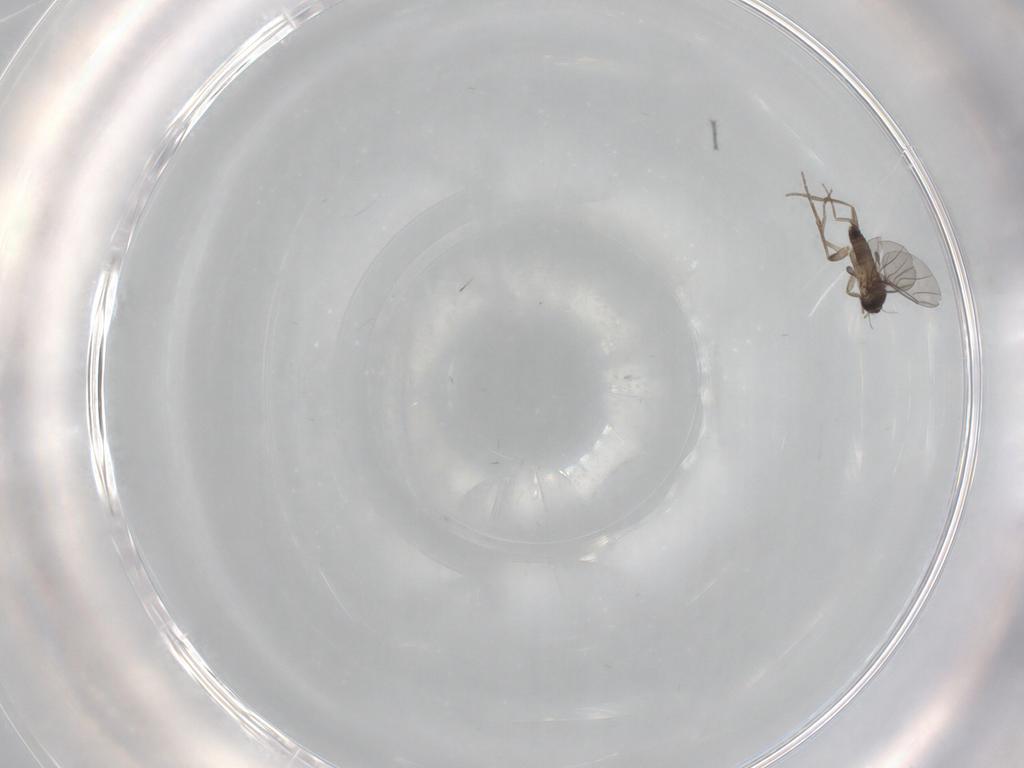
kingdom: Animalia
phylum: Arthropoda
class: Insecta
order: Diptera
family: Phoridae
